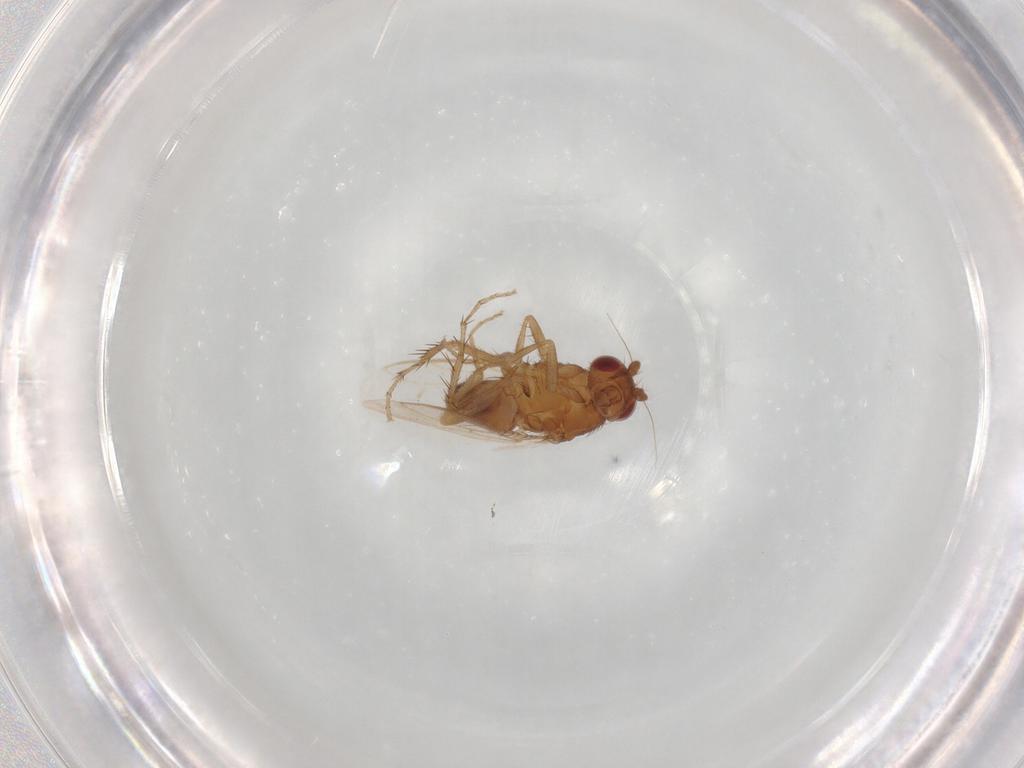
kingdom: Animalia
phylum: Arthropoda
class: Insecta
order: Diptera
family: Sphaeroceridae
